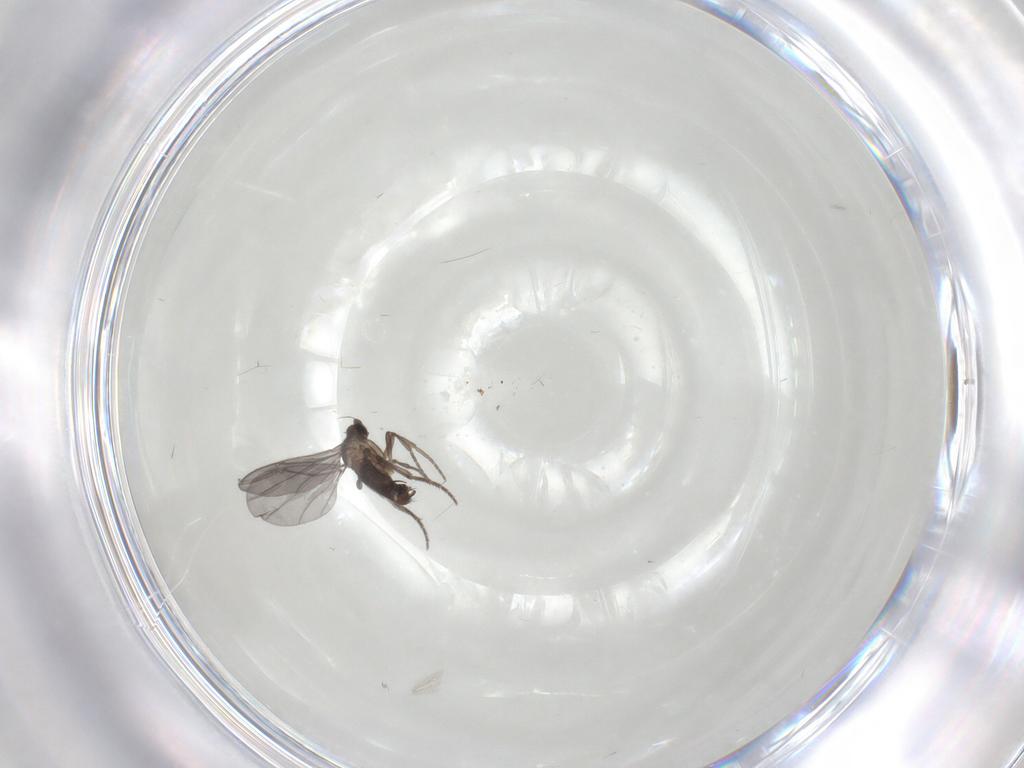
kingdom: Animalia
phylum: Arthropoda
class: Insecta
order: Diptera
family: Phoridae
